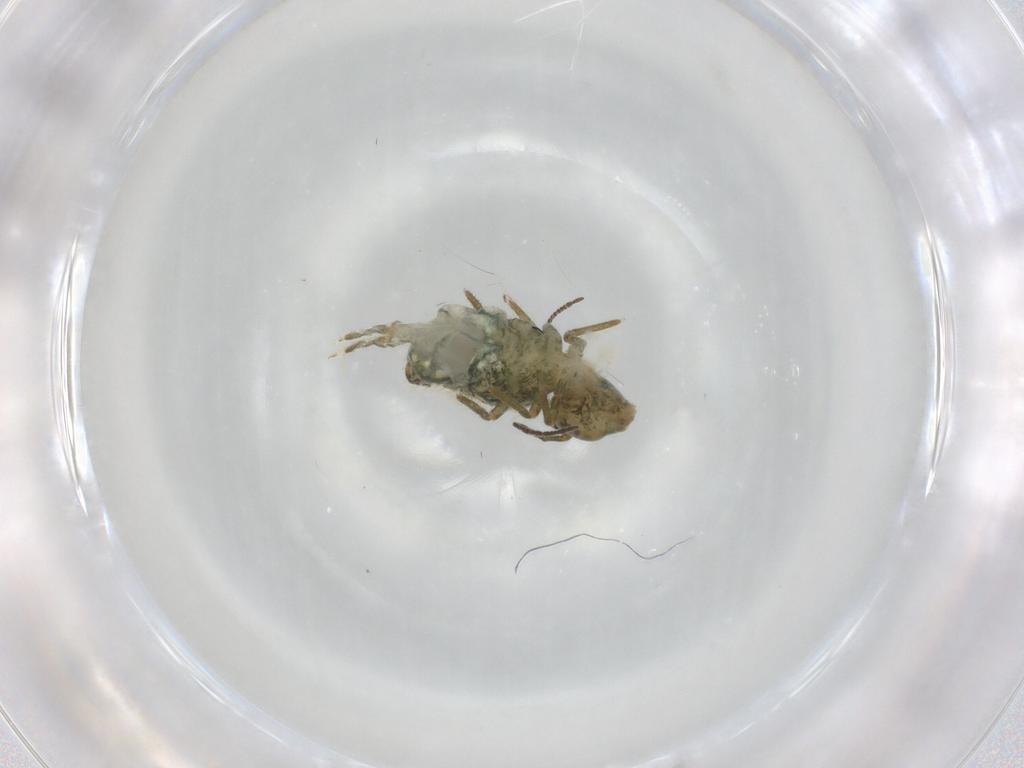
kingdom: Animalia
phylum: Arthropoda
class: Collembola
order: Symphypleona
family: Sminthuridae
